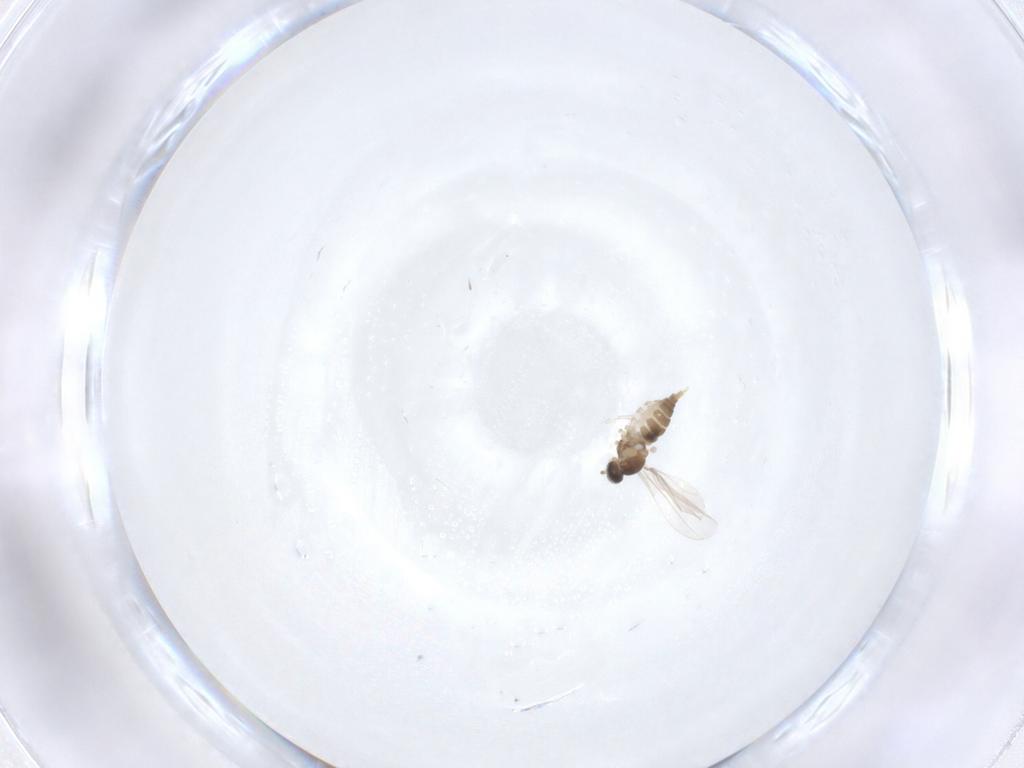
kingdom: Animalia
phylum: Arthropoda
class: Insecta
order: Diptera
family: Cecidomyiidae
